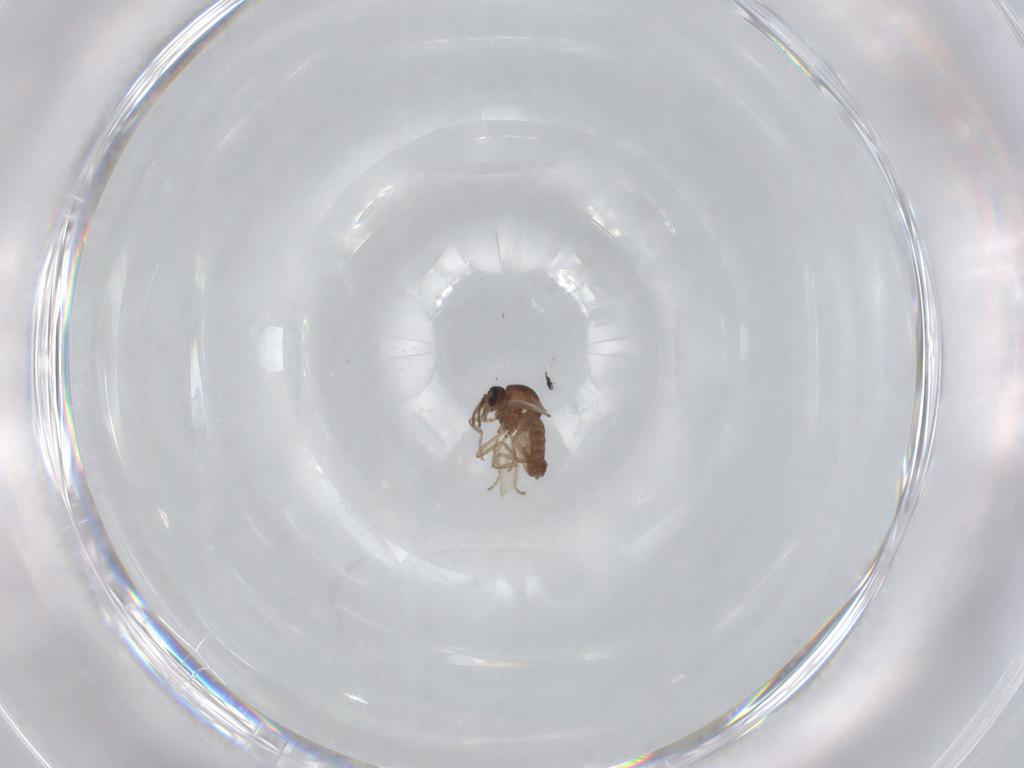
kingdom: Animalia
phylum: Arthropoda
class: Insecta
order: Diptera
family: Ceratopogonidae
